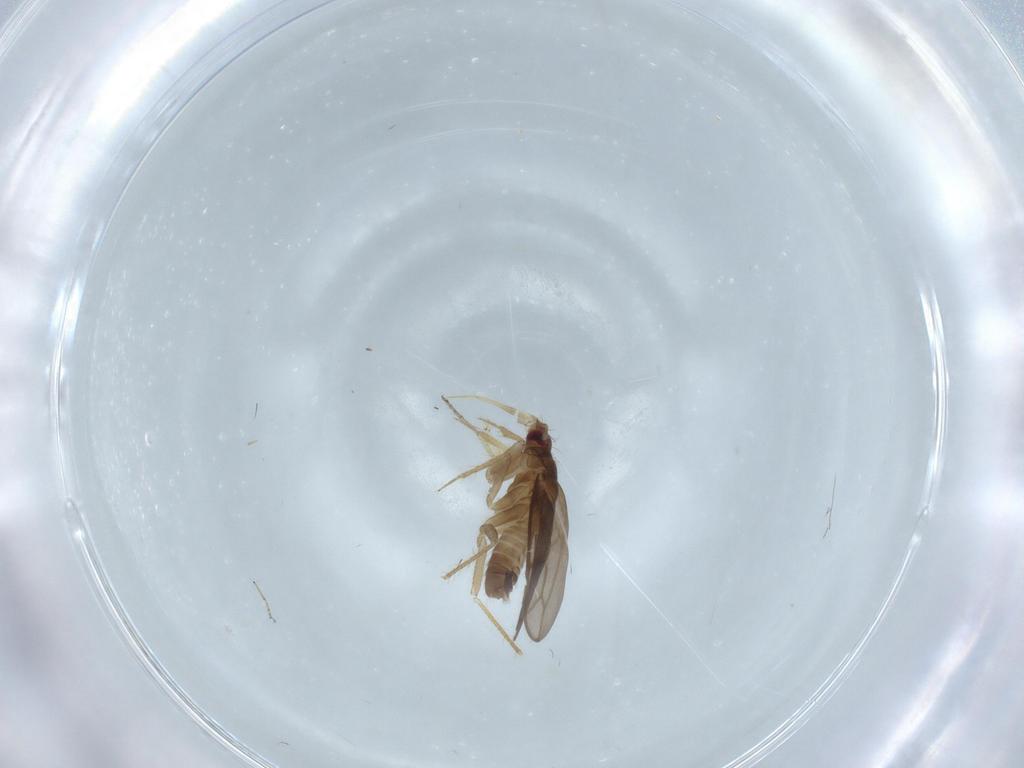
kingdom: Animalia
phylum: Arthropoda
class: Insecta
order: Hemiptera
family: Ceratocombidae
